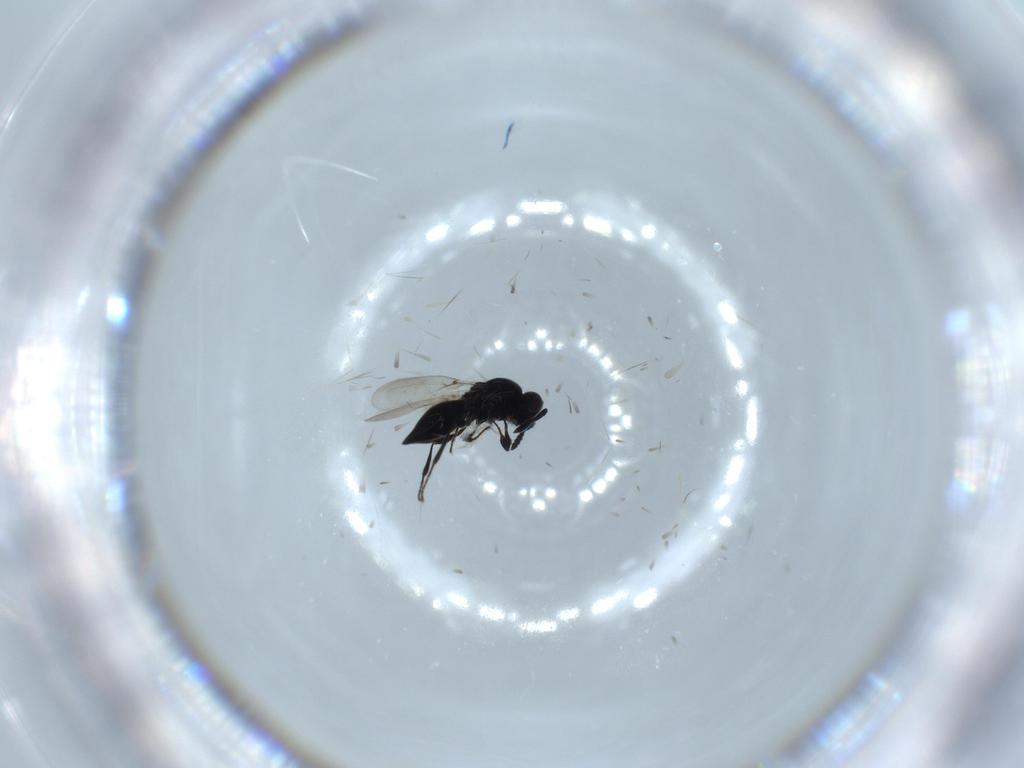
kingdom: Animalia
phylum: Arthropoda
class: Insecta
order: Hymenoptera
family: Platygastridae
